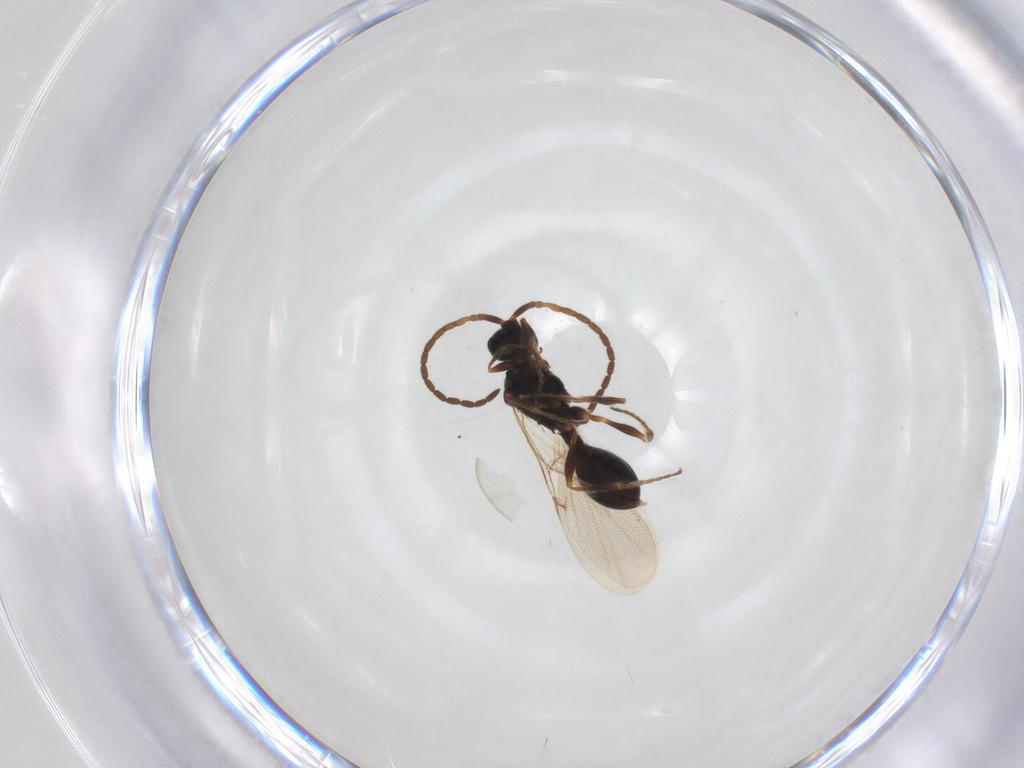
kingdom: Animalia
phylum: Arthropoda
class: Insecta
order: Hymenoptera
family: Diapriidae
